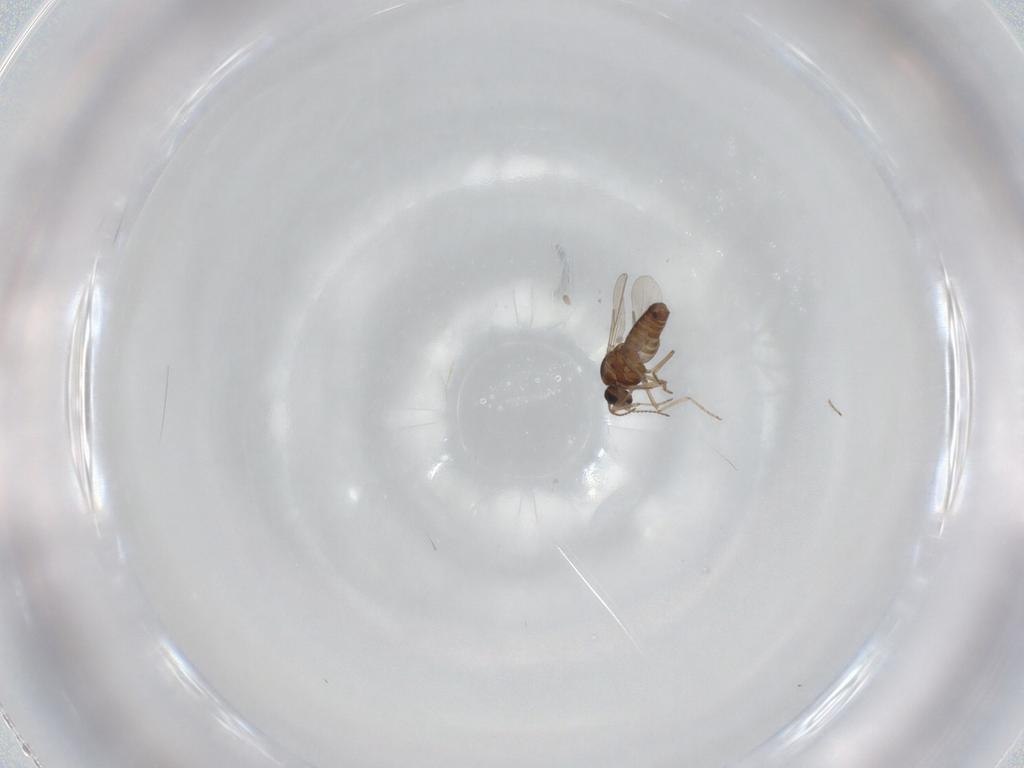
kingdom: Animalia
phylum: Arthropoda
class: Insecta
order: Diptera
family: Ceratopogonidae
